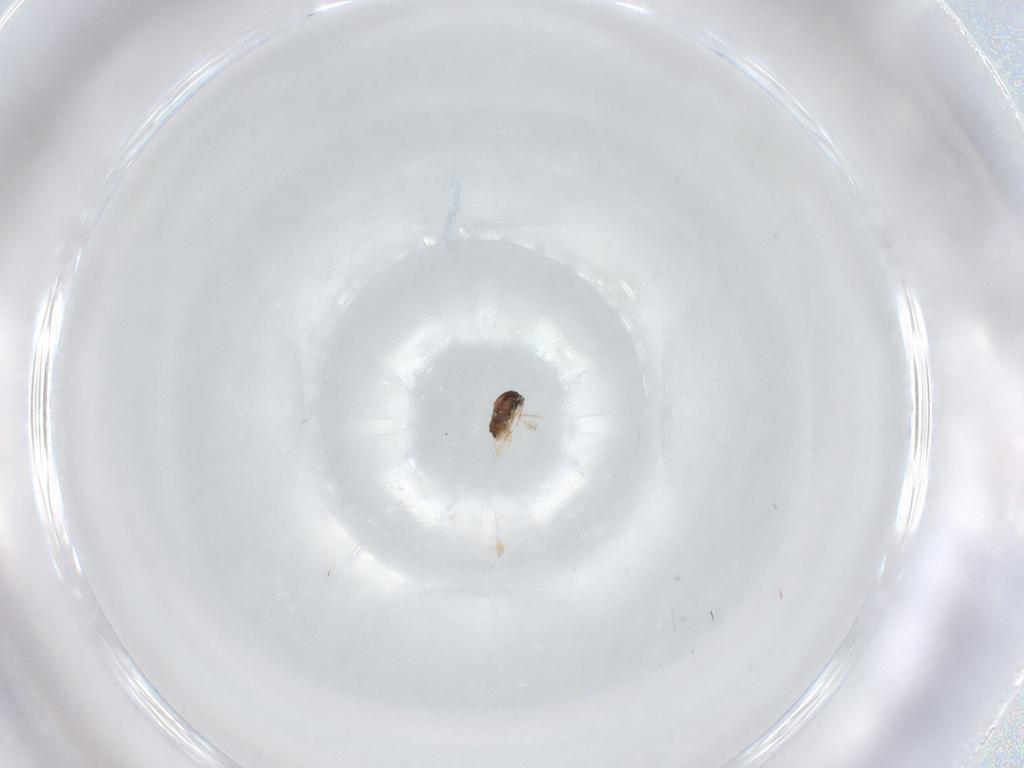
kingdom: Animalia
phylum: Arthropoda
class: Insecta
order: Diptera
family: Cecidomyiidae
